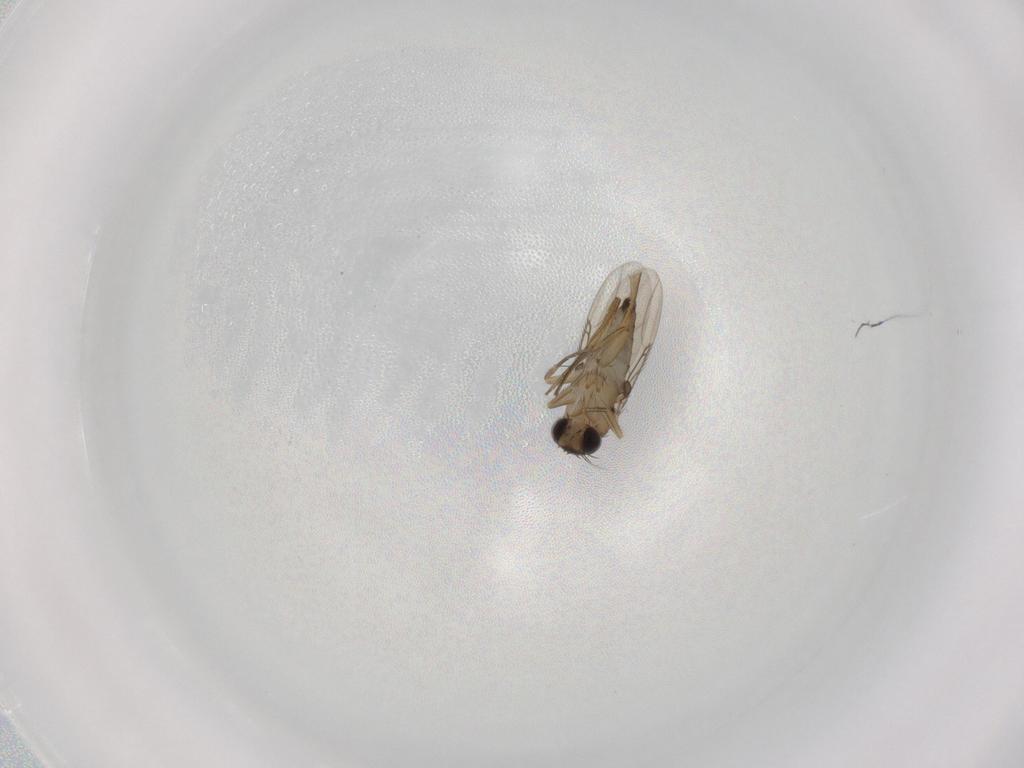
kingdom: Animalia
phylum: Arthropoda
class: Insecta
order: Diptera
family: Phoridae
